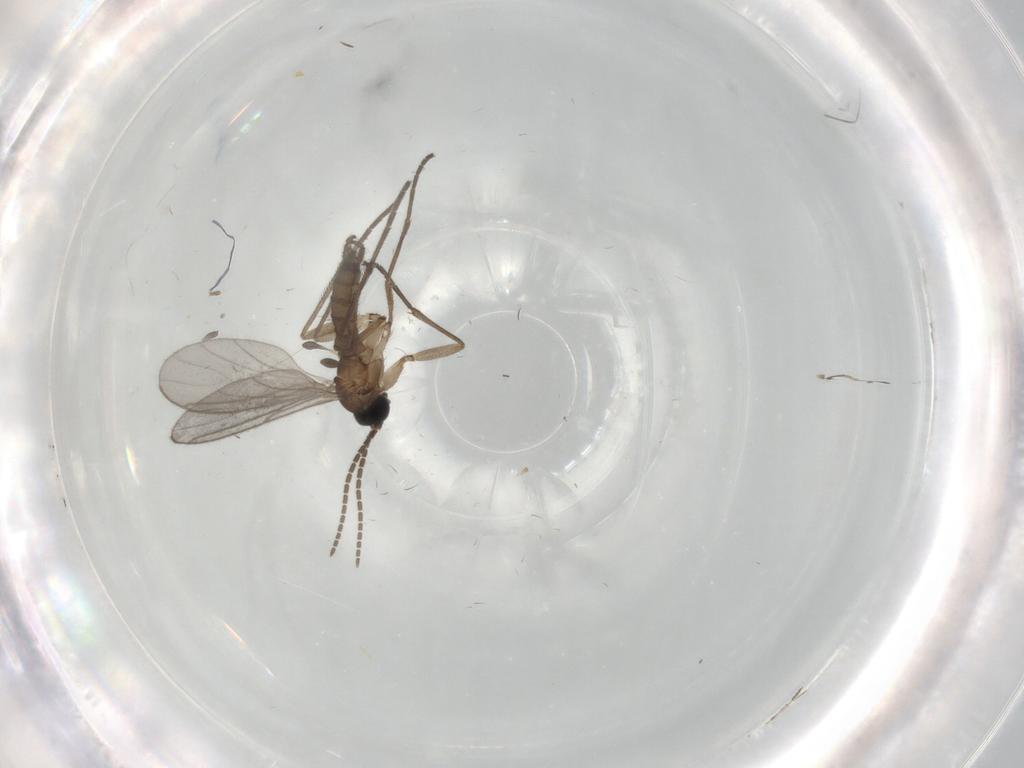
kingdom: Animalia
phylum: Arthropoda
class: Insecta
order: Diptera
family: Sciaridae
